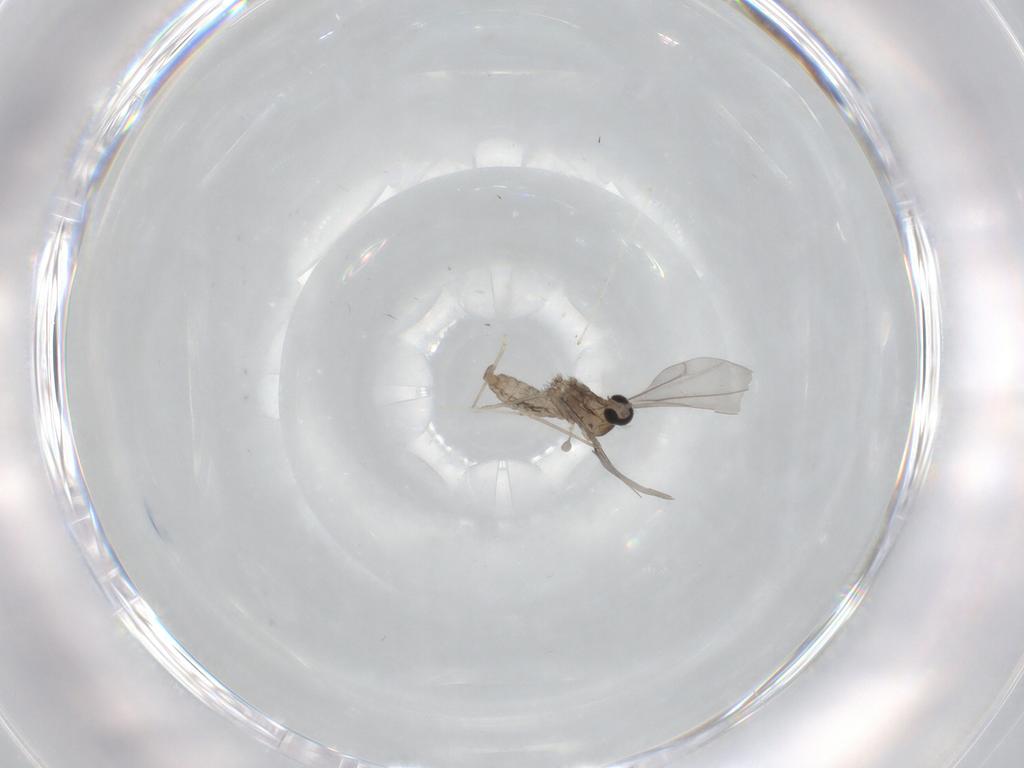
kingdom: Animalia
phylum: Arthropoda
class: Insecta
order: Diptera
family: Cecidomyiidae
